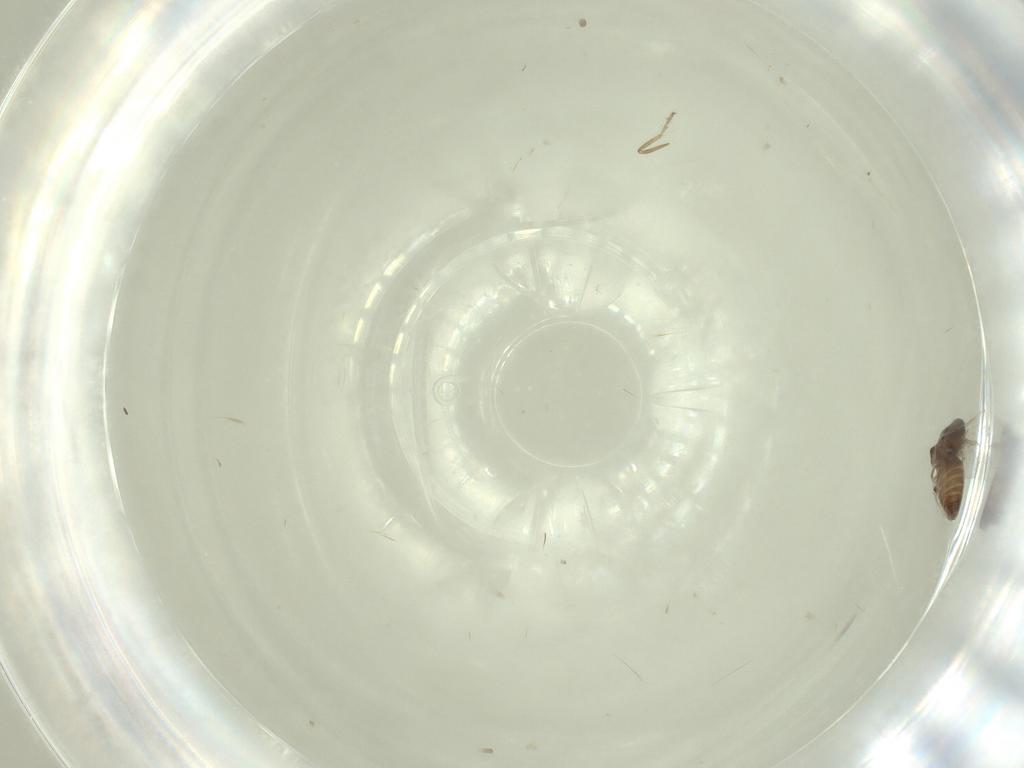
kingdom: Animalia
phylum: Arthropoda
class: Insecta
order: Diptera
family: Ceratopogonidae
